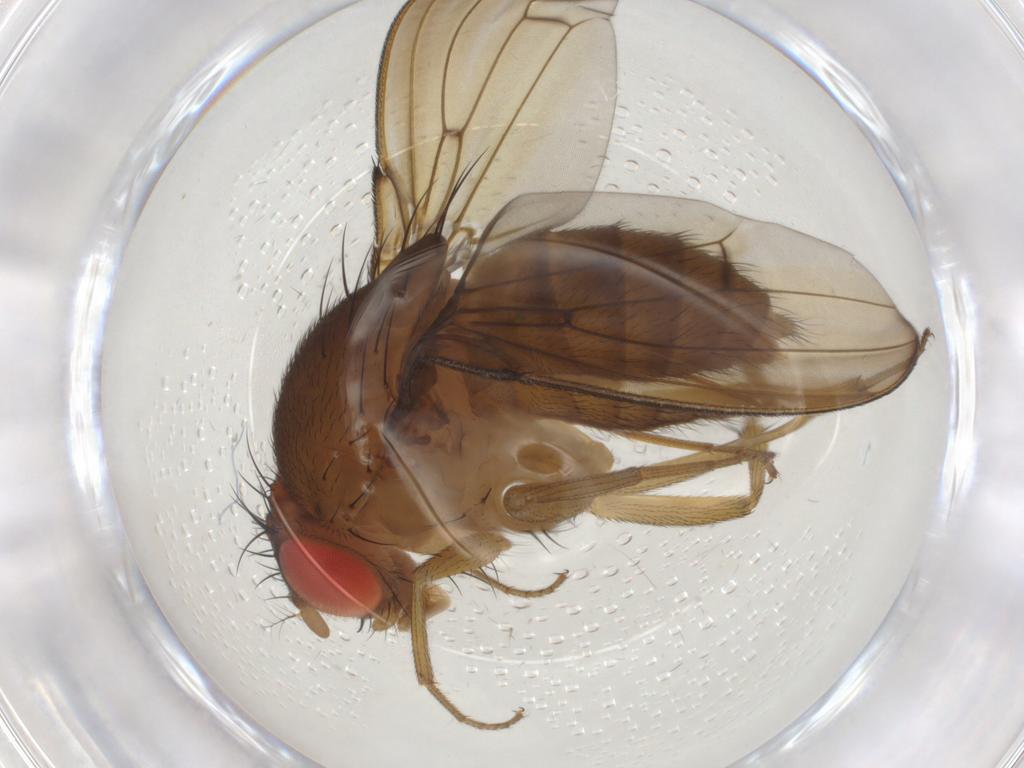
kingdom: Animalia
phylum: Arthropoda
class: Insecta
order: Diptera
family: Drosophilidae
